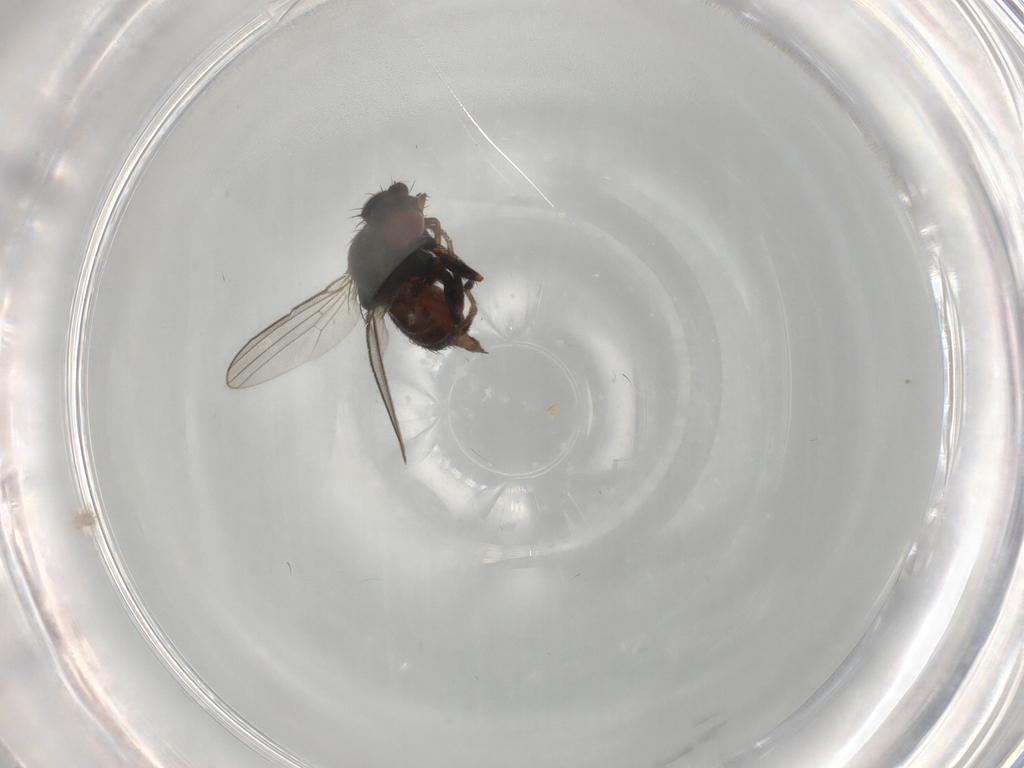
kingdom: Animalia
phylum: Arthropoda
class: Insecta
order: Diptera
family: Milichiidae
